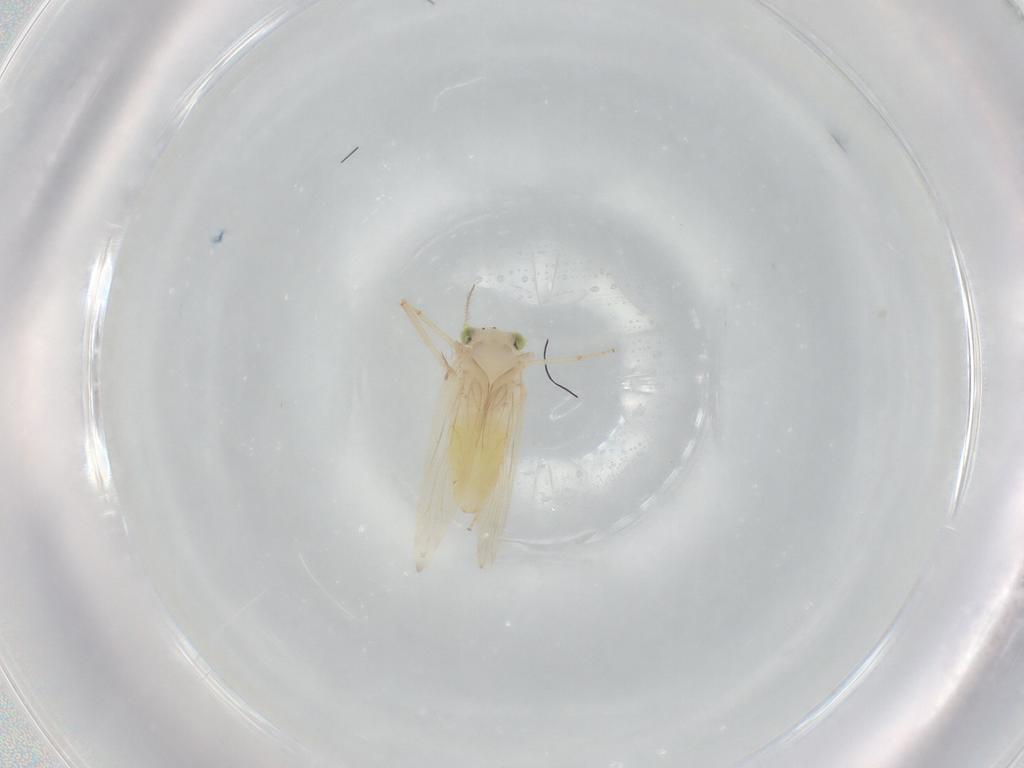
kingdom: Animalia
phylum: Arthropoda
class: Insecta
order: Psocodea
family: Lepidopsocidae
